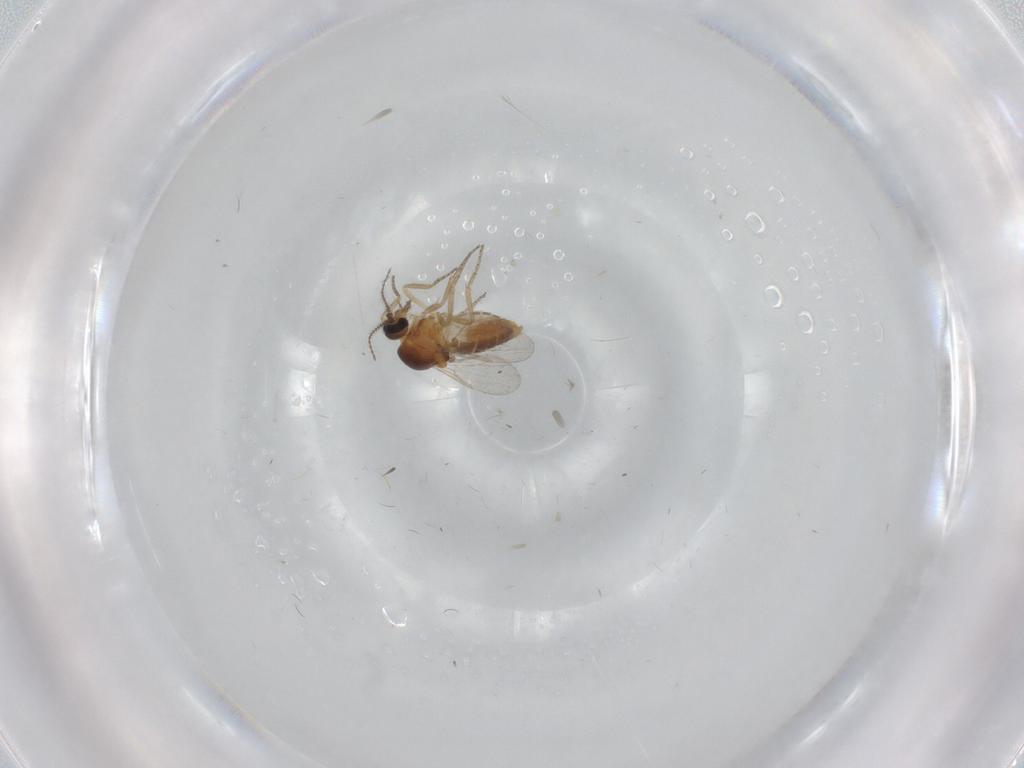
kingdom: Animalia
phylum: Arthropoda
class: Insecta
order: Diptera
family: Ceratopogonidae
